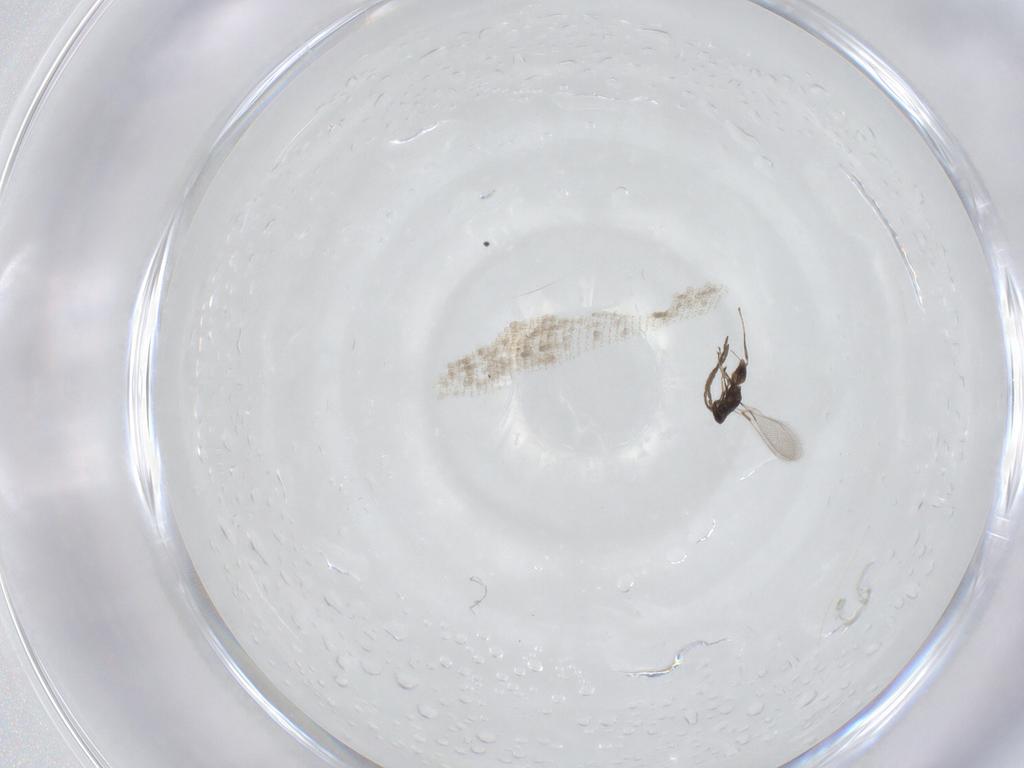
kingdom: Animalia
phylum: Arthropoda
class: Insecta
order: Hymenoptera
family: Mymaridae
